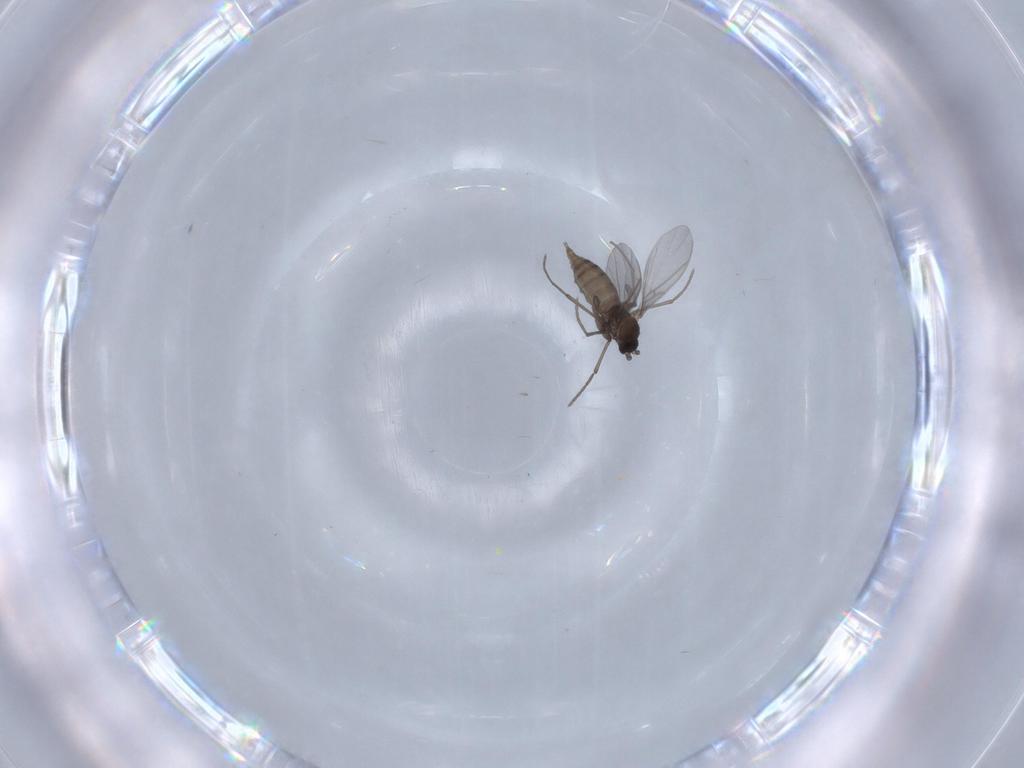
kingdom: Animalia
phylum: Arthropoda
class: Insecta
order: Diptera
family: Sciaridae
